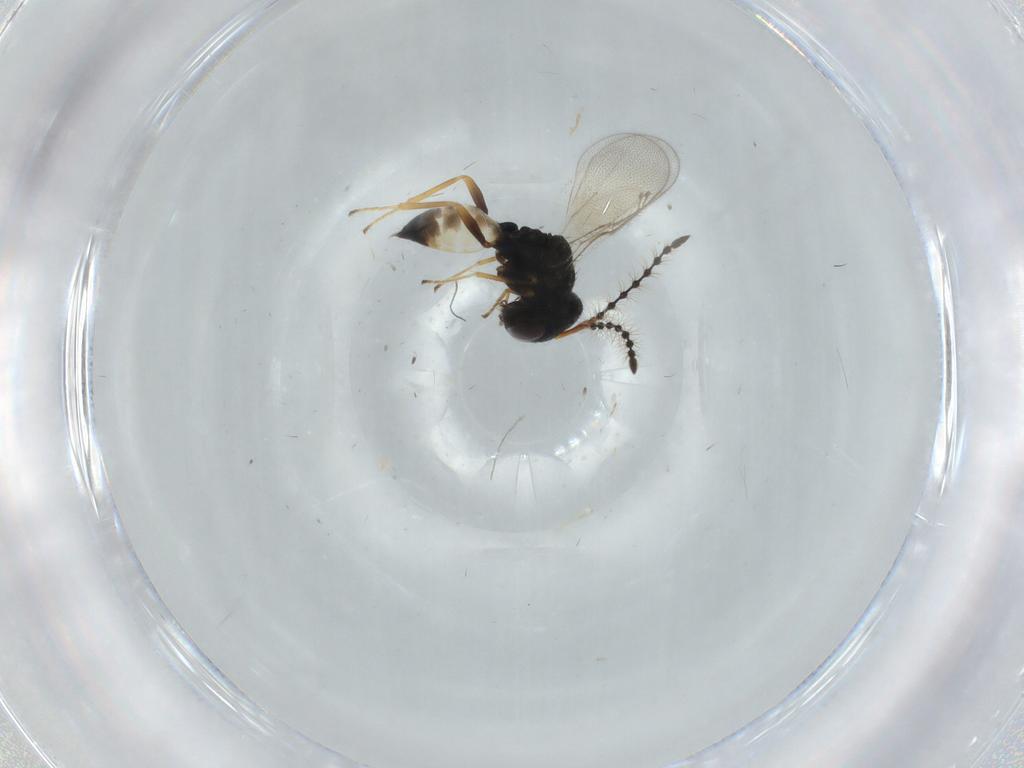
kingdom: Animalia
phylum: Arthropoda
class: Insecta
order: Hymenoptera
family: Pteromalidae
